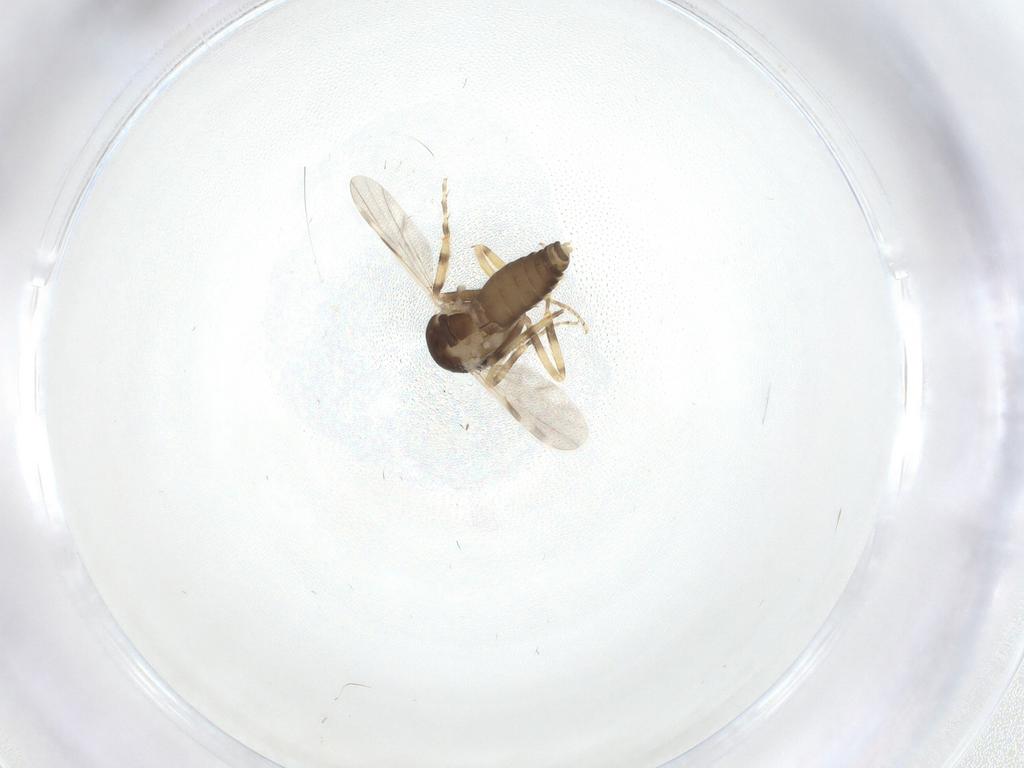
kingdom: Animalia
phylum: Arthropoda
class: Insecta
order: Diptera
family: Ceratopogonidae
